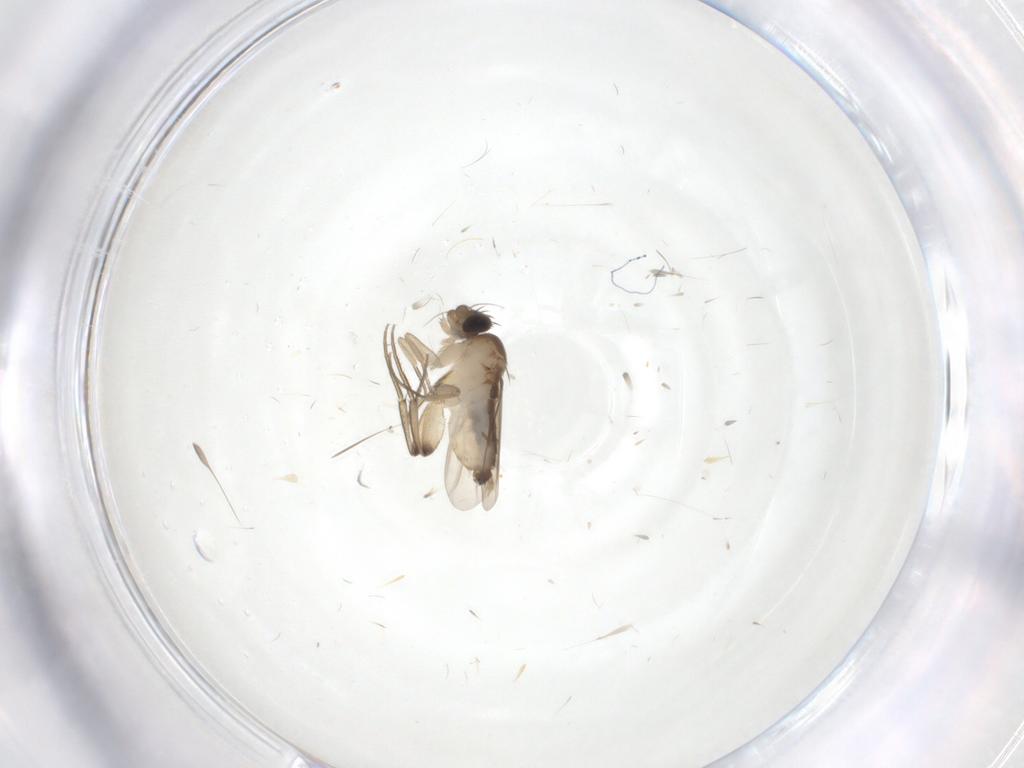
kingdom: Animalia
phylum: Arthropoda
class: Insecta
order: Diptera
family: Phoridae
